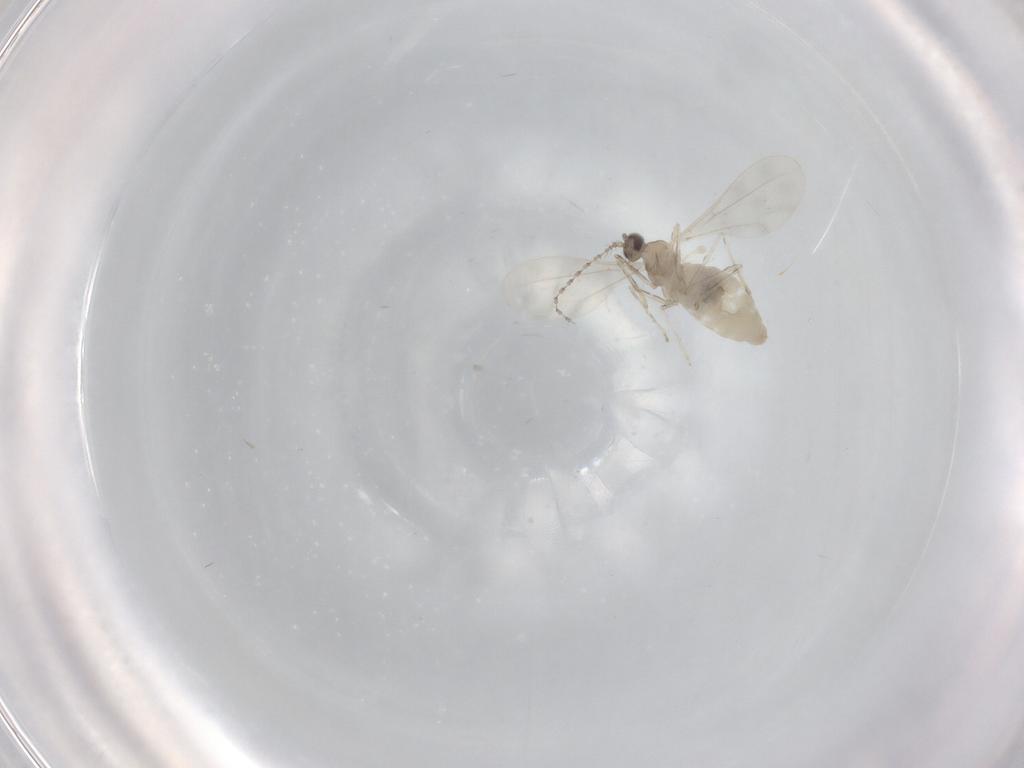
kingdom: Animalia
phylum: Arthropoda
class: Insecta
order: Diptera
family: Cecidomyiidae
